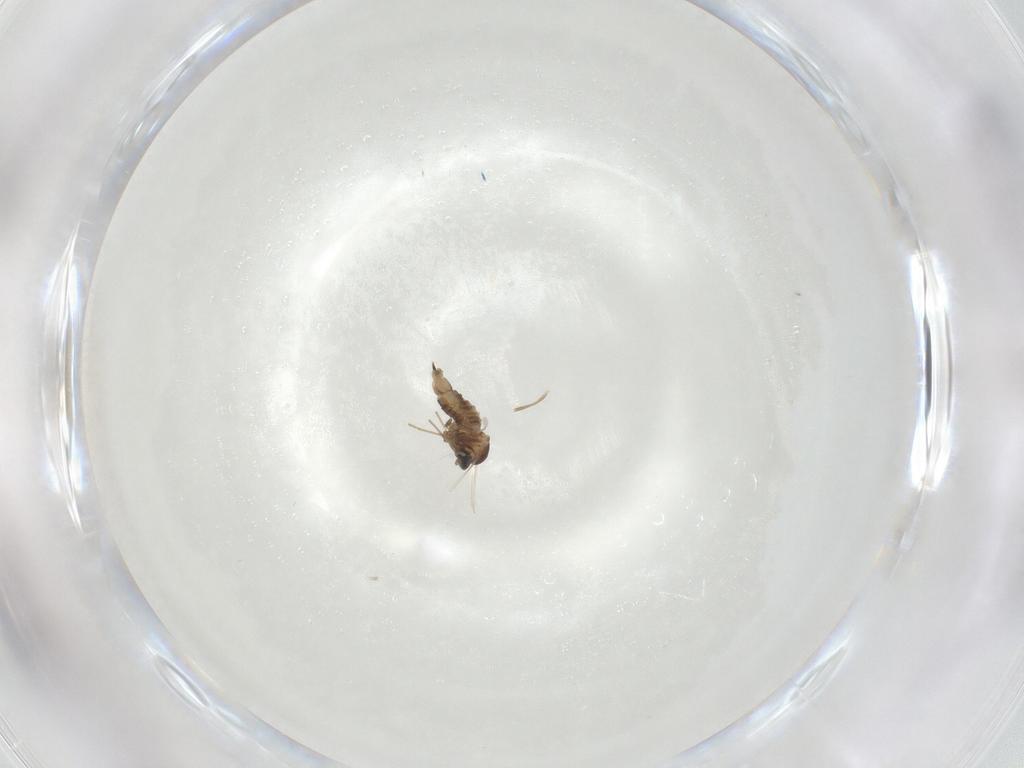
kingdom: Animalia
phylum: Arthropoda
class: Insecta
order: Diptera
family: Cecidomyiidae
